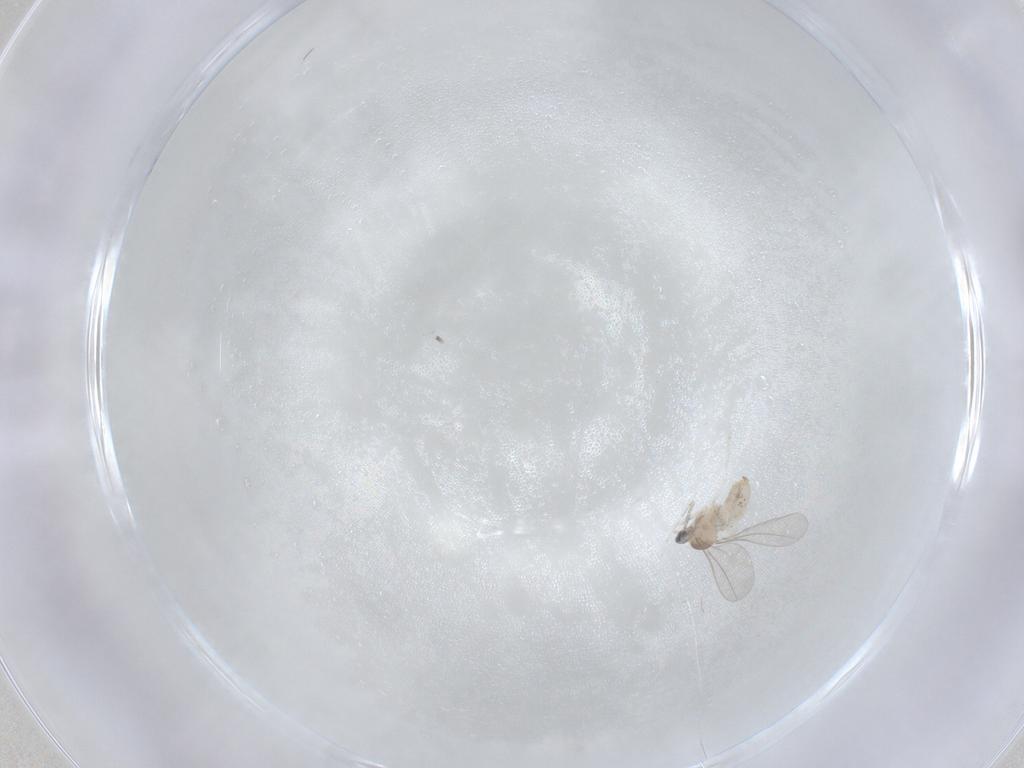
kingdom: Animalia
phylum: Arthropoda
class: Insecta
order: Diptera
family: Cecidomyiidae
